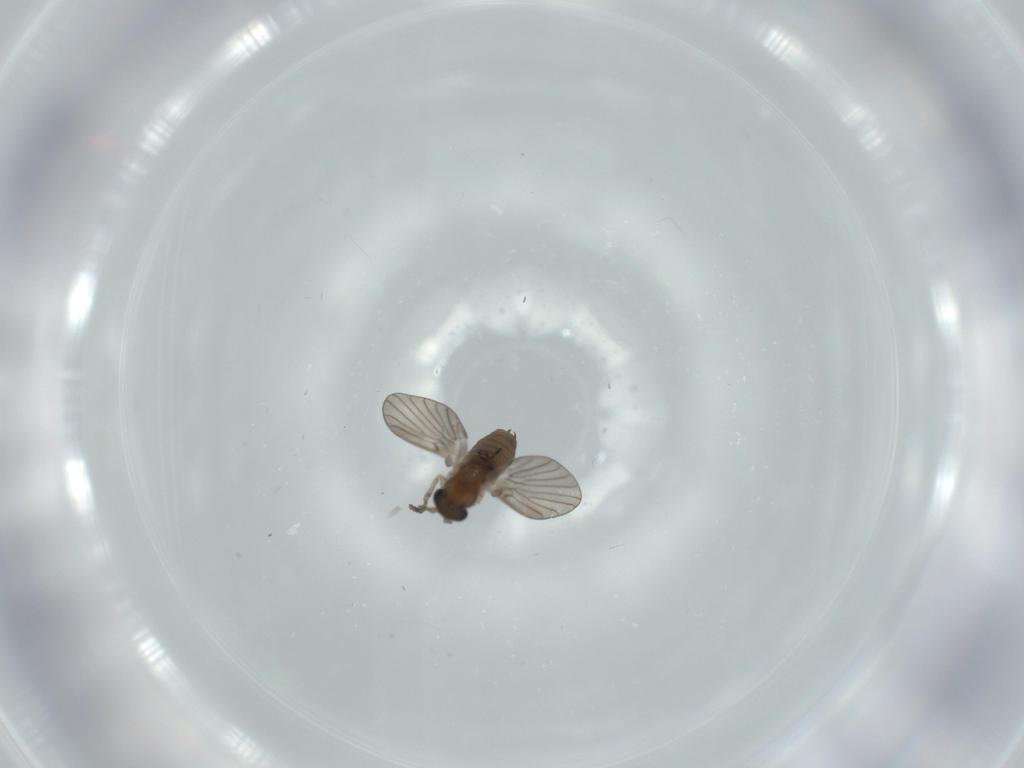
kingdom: Animalia
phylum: Arthropoda
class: Insecta
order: Diptera
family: Psychodidae
